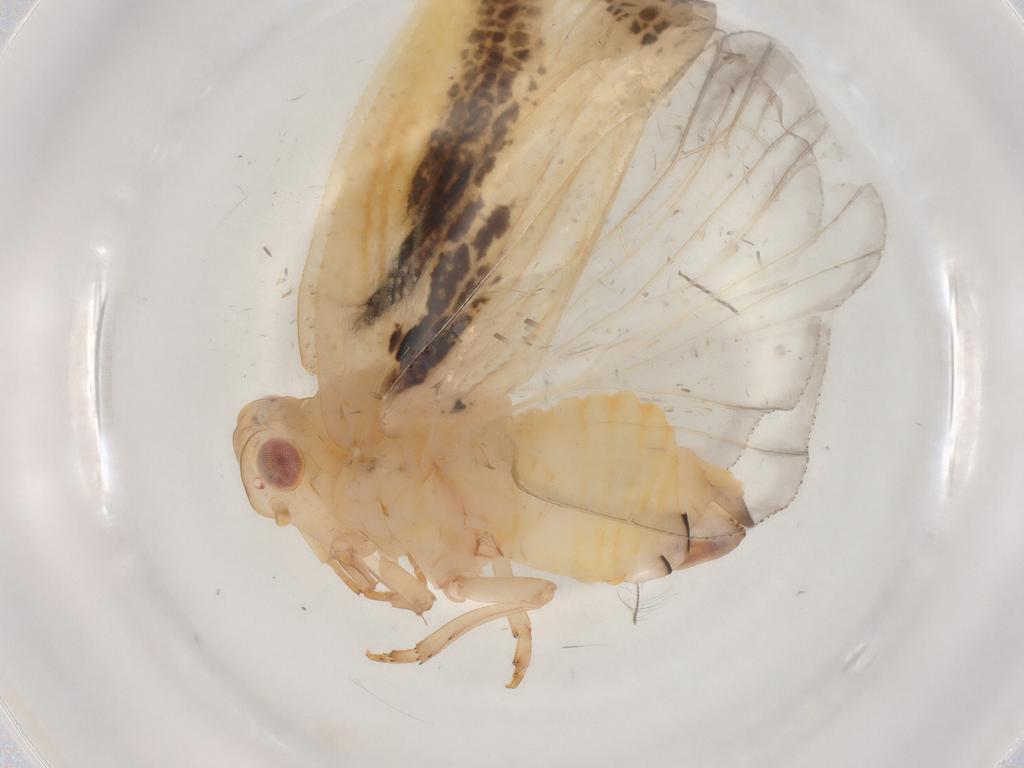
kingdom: Animalia
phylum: Arthropoda
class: Insecta
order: Hemiptera
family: Flatidae
